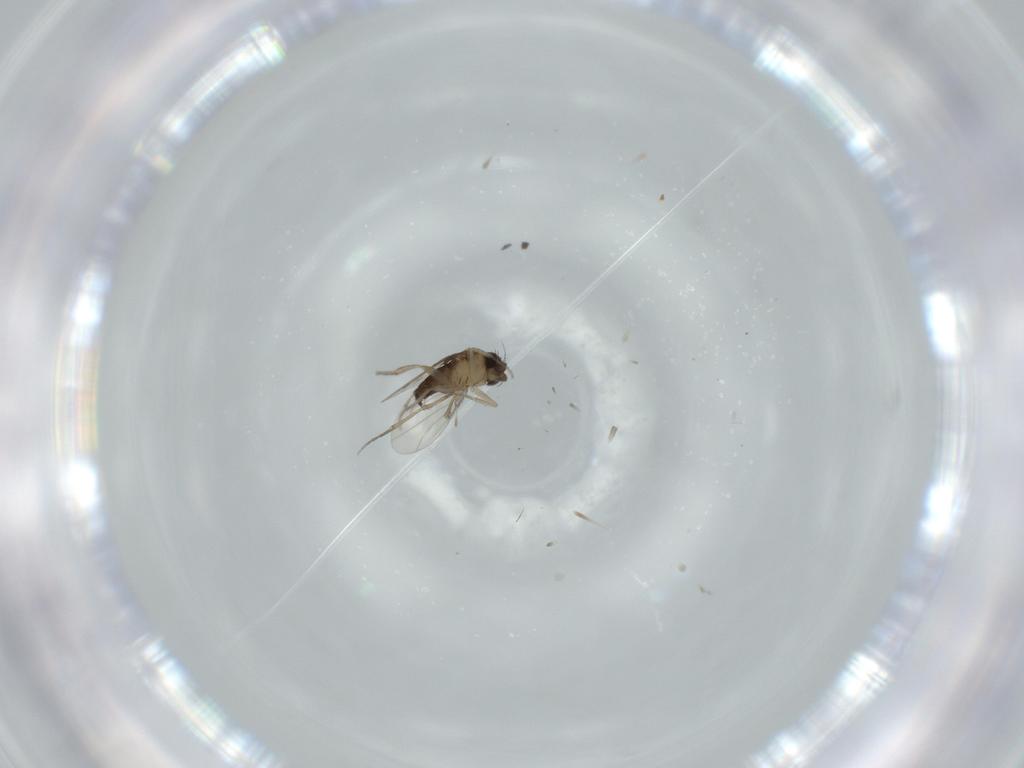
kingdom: Animalia
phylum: Arthropoda
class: Insecta
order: Diptera
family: Phoridae
